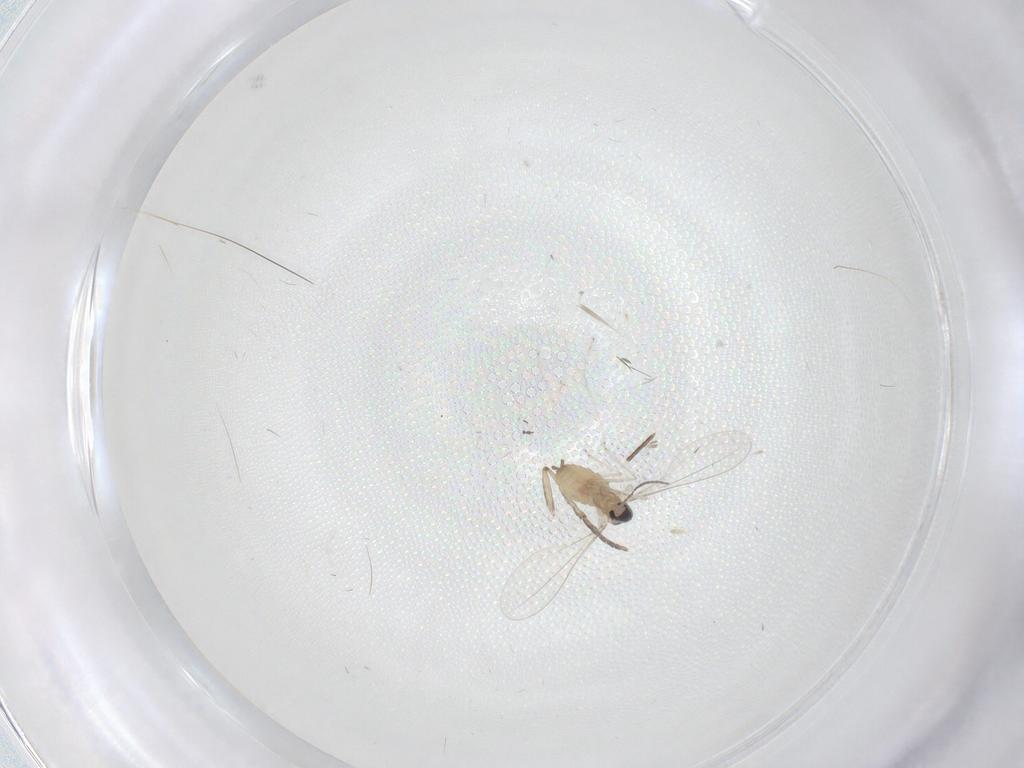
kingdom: Animalia
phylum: Arthropoda
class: Insecta
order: Diptera
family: Cecidomyiidae
